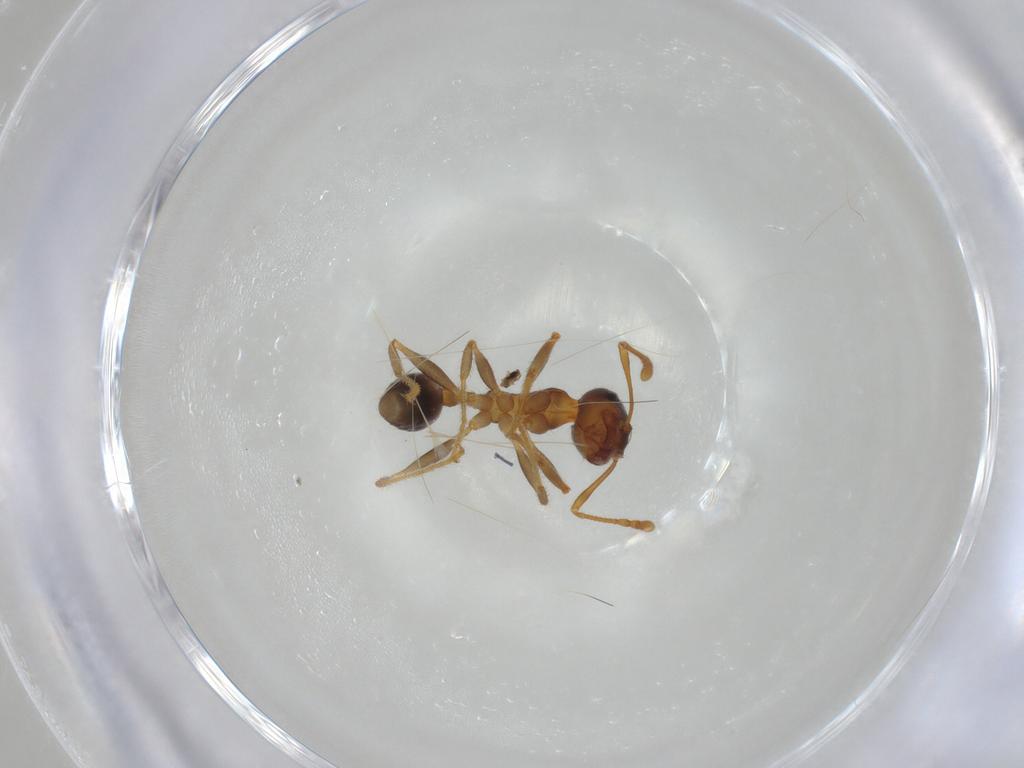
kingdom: Animalia
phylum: Arthropoda
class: Insecta
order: Hymenoptera
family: Formicidae
